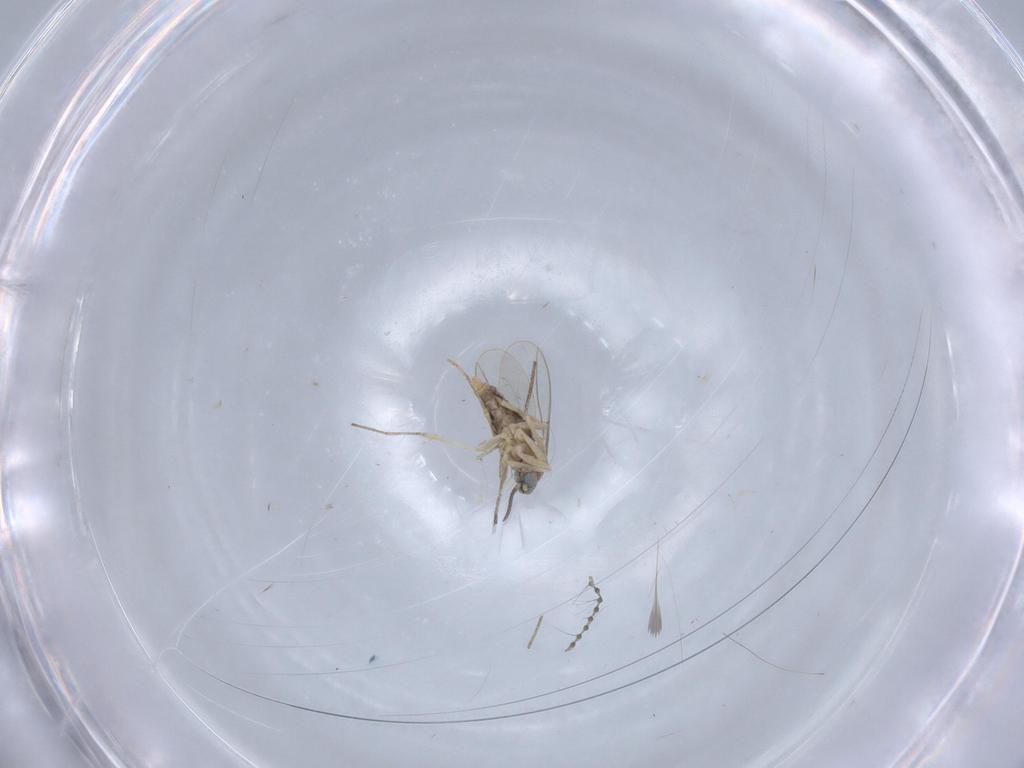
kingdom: Animalia
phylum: Arthropoda
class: Insecta
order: Diptera
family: Cecidomyiidae
